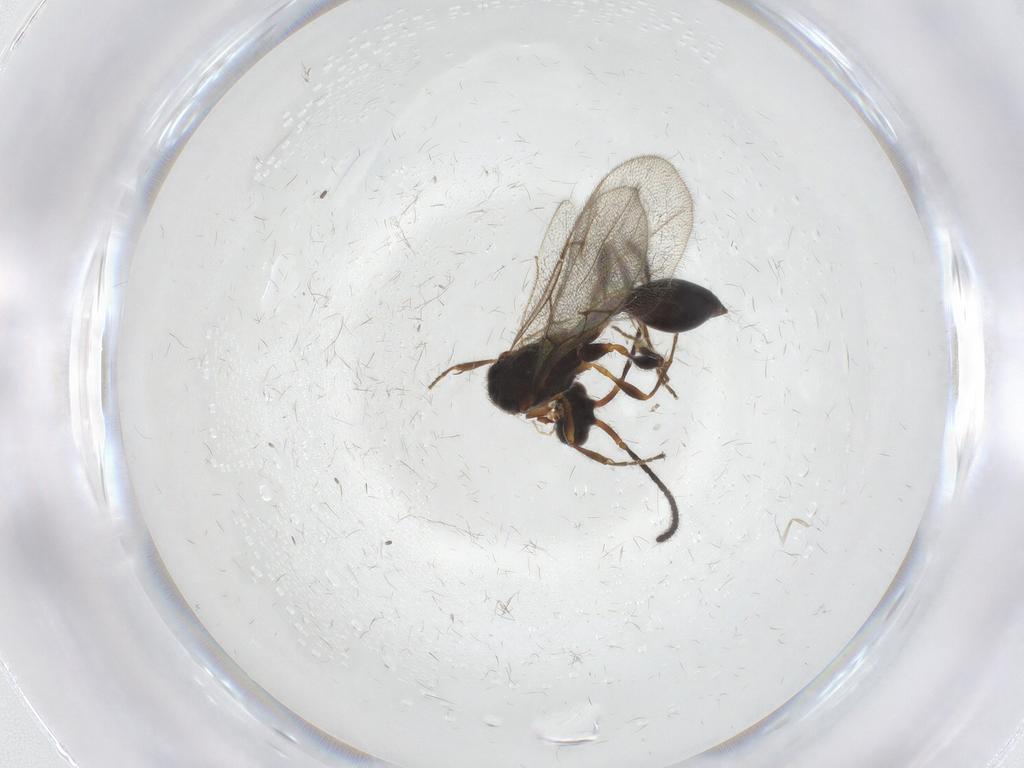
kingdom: Animalia
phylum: Arthropoda
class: Insecta
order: Hymenoptera
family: Diapriidae
